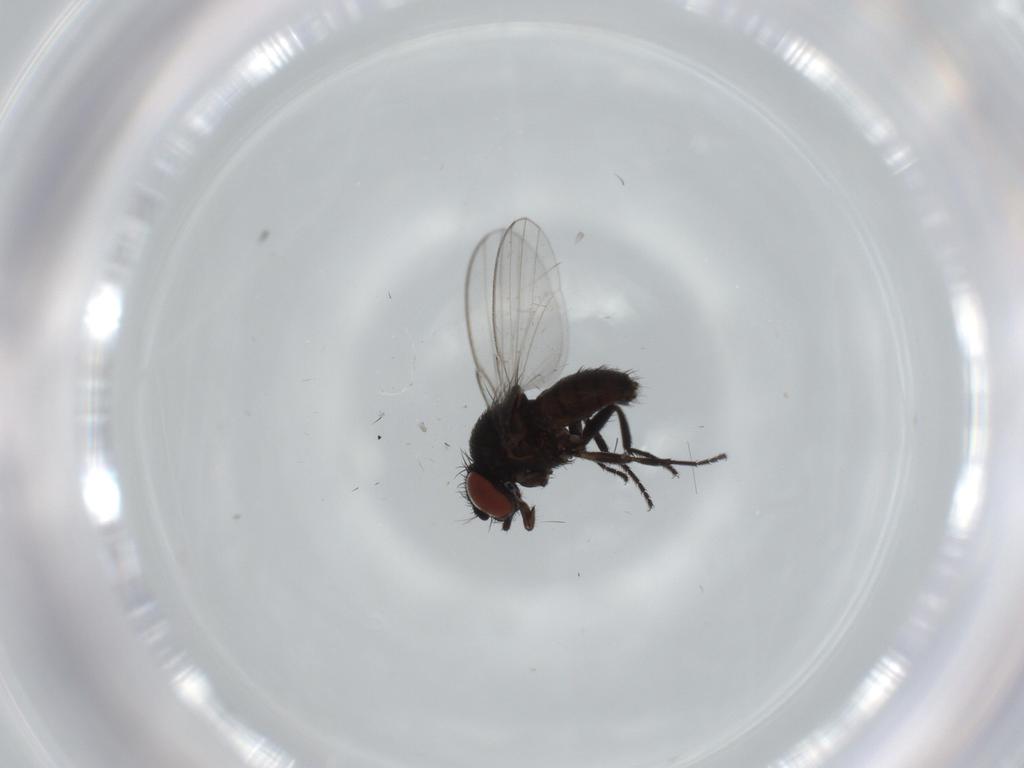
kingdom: Animalia
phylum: Arthropoda
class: Insecta
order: Diptera
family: Milichiidae
